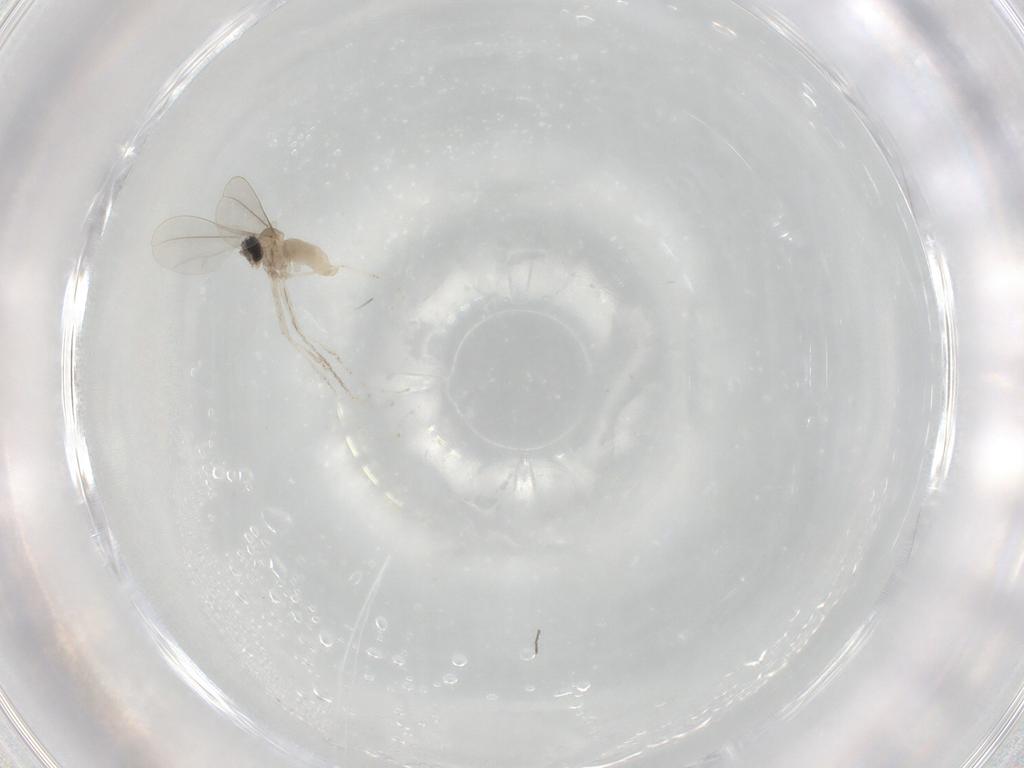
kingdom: Animalia
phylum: Arthropoda
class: Insecta
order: Diptera
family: Cecidomyiidae
